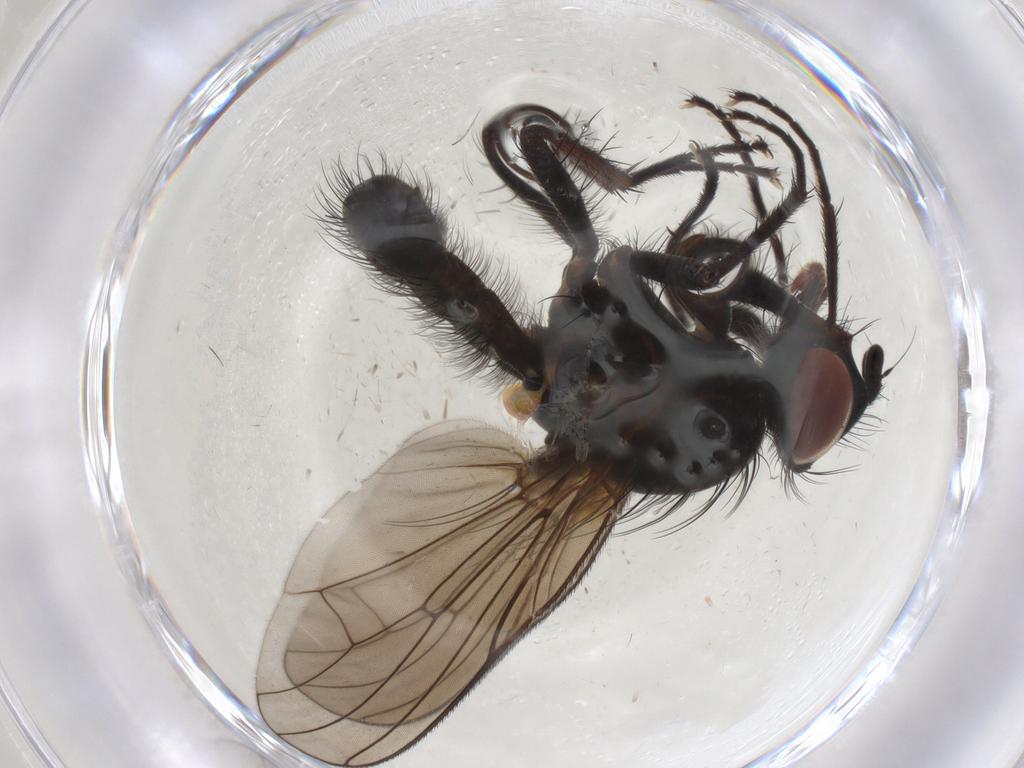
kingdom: Animalia
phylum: Arthropoda
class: Insecta
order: Diptera
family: Anthomyiidae
